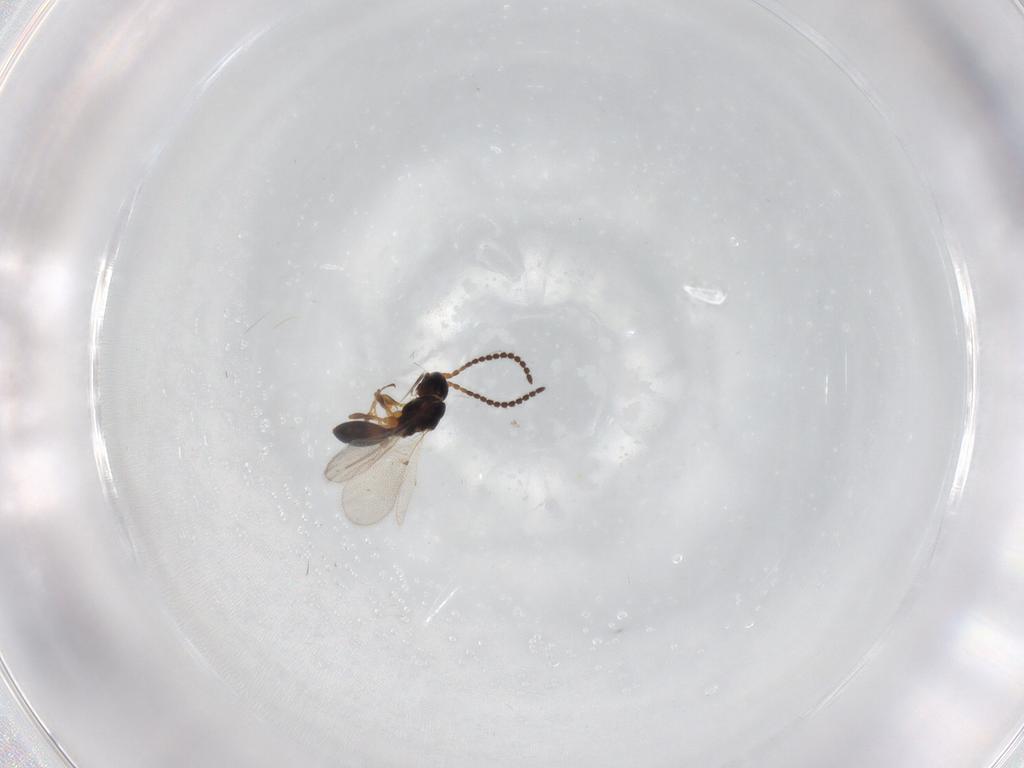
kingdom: Animalia
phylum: Arthropoda
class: Insecta
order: Hymenoptera
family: Diapriidae
